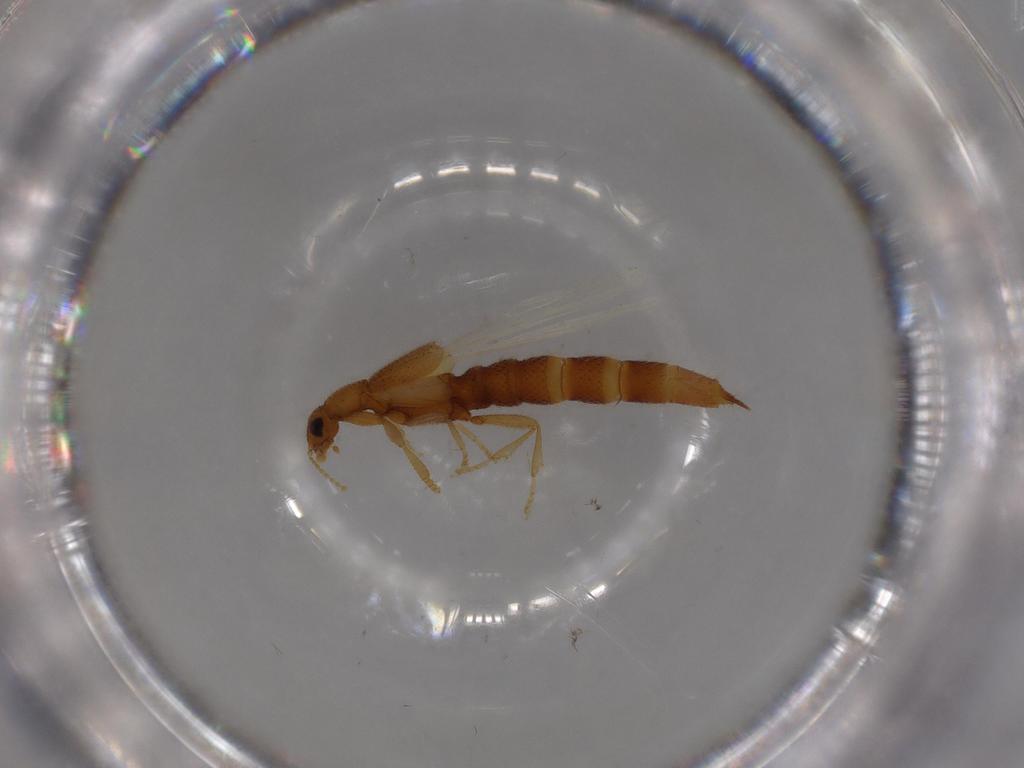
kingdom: Animalia
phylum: Arthropoda
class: Insecta
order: Coleoptera
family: Staphylinidae
